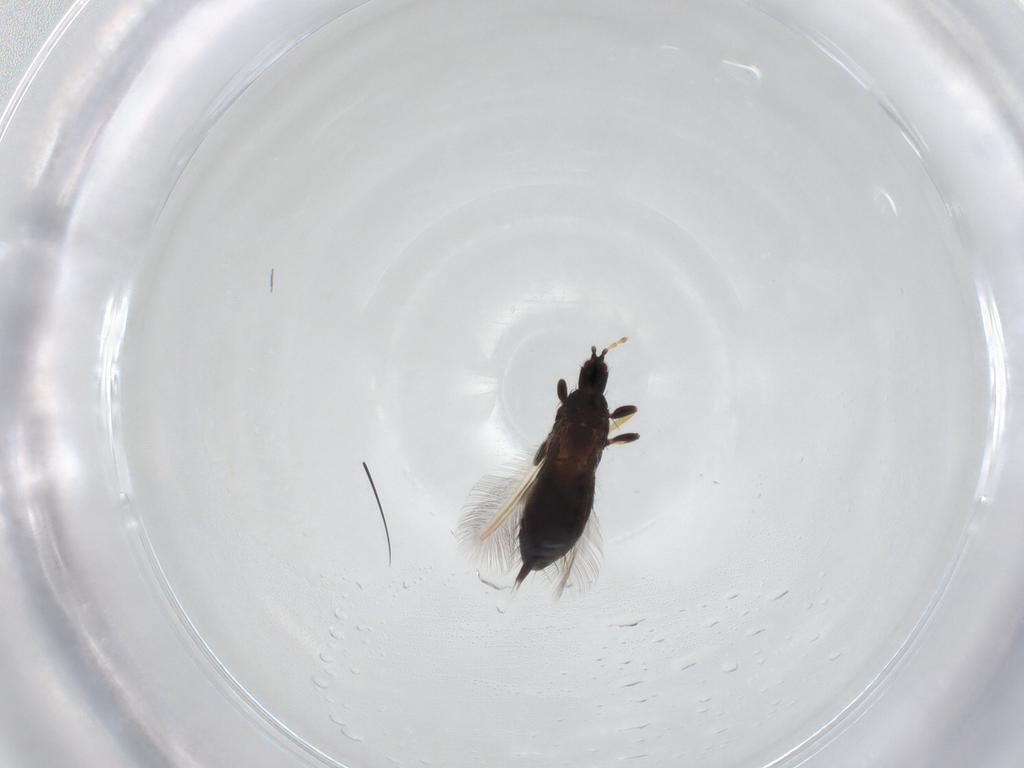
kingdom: Animalia
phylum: Arthropoda
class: Insecta
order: Thysanoptera
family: Phlaeothripidae
